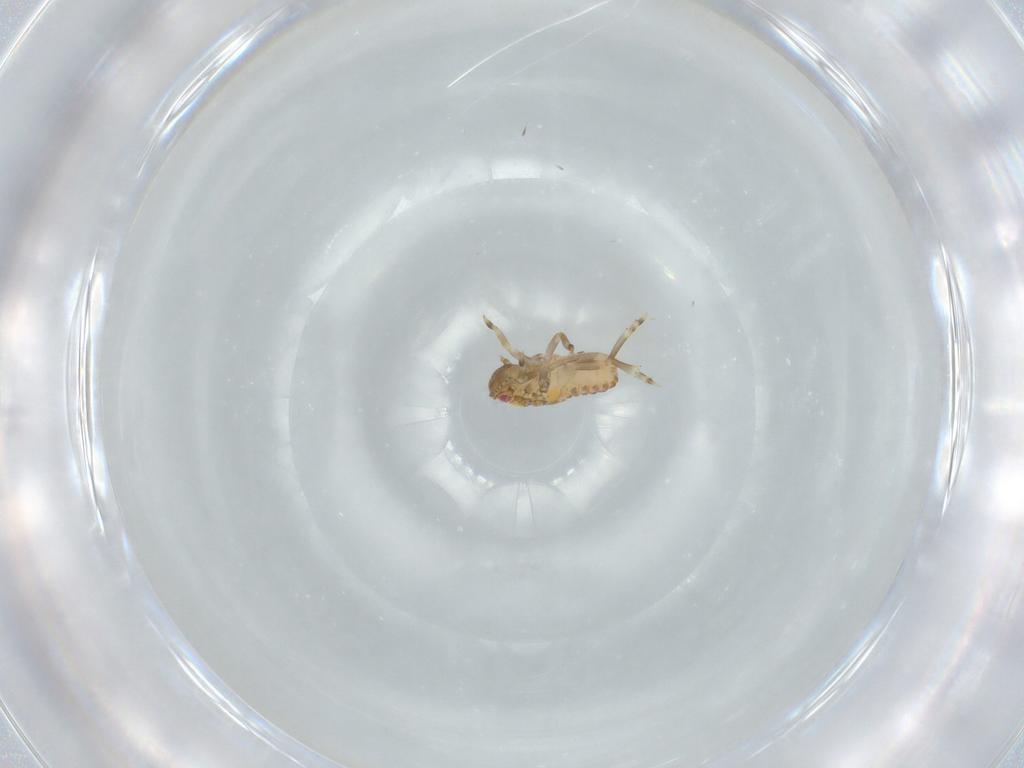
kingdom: Animalia
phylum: Arthropoda
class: Insecta
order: Hemiptera
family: Flatidae
